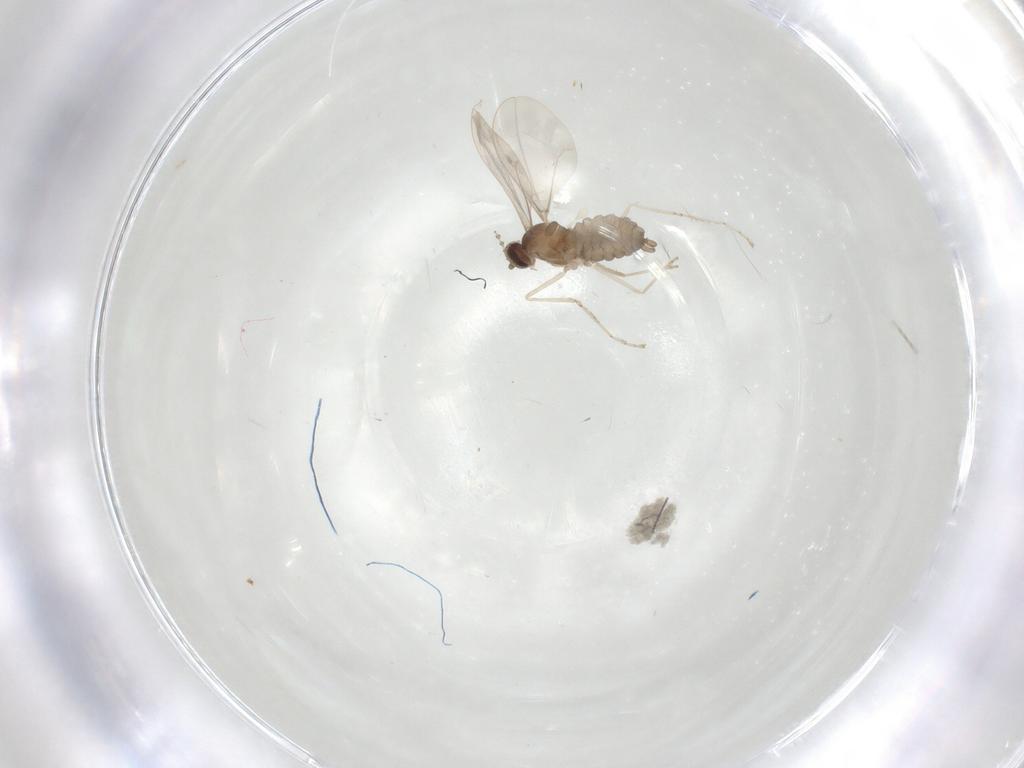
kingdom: Animalia
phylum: Arthropoda
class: Insecta
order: Diptera
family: Cecidomyiidae
